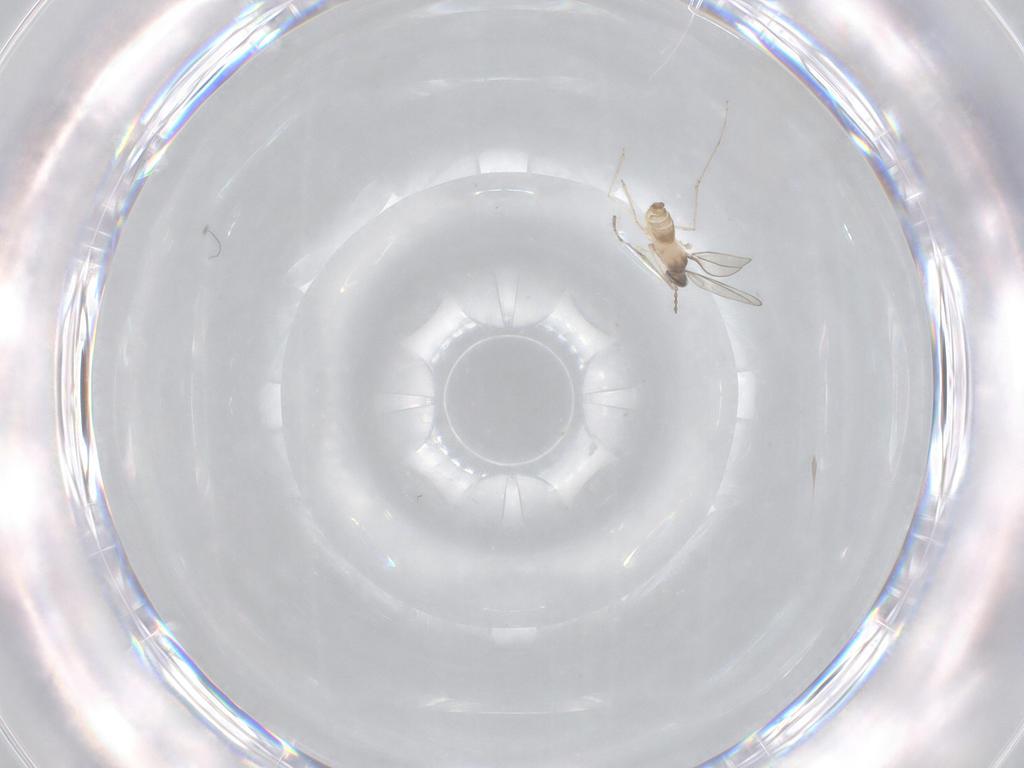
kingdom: Animalia
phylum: Arthropoda
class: Insecta
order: Diptera
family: Cecidomyiidae
